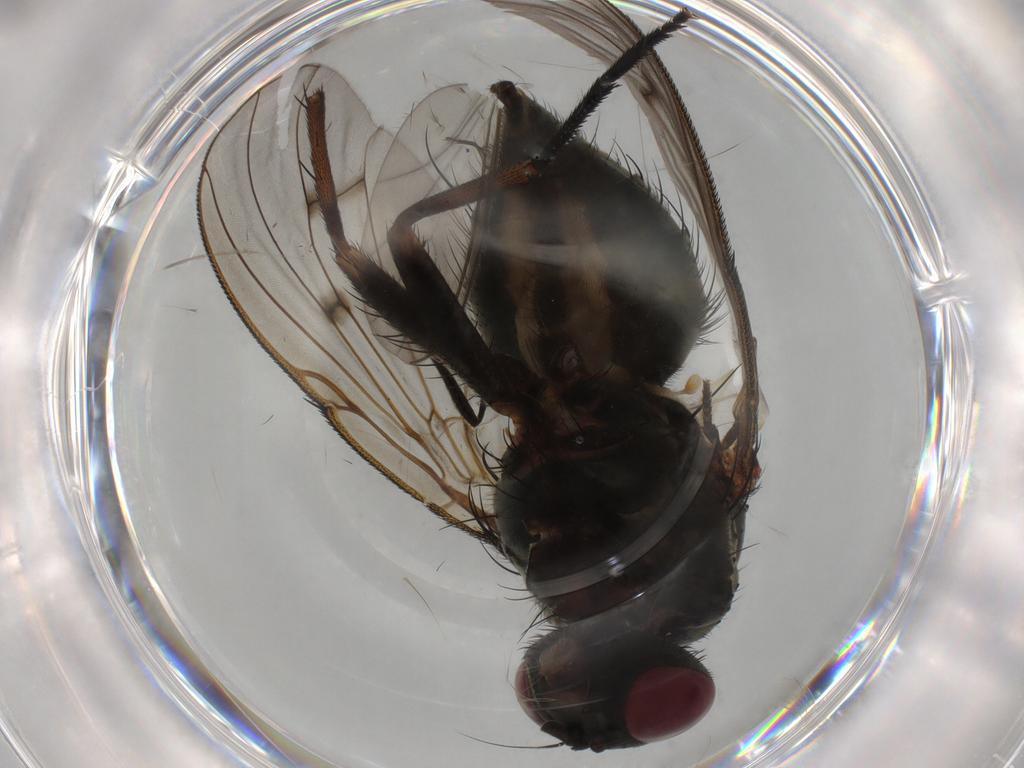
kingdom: Animalia
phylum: Arthropoda
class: Insecta
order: Diptera
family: Muscidae
